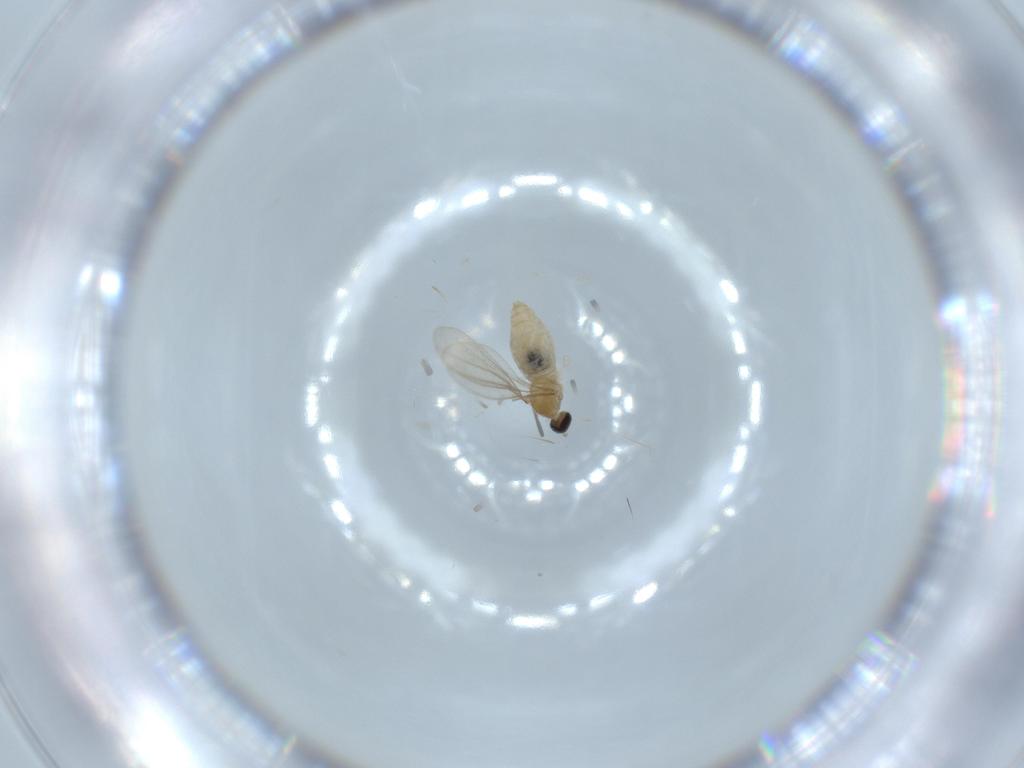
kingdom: Animalia
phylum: Arthropoda
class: Insecta
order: Diptera
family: Cecidomyiidae
